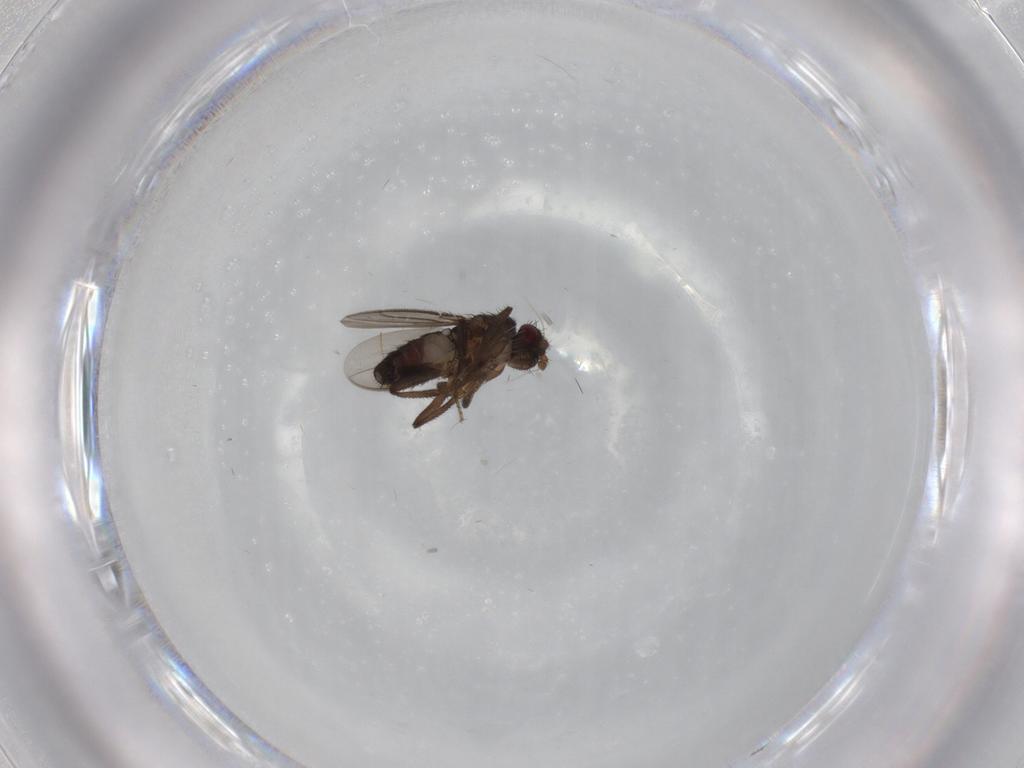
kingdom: Animalia
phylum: Arthropoda
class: Insecta
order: Diptera
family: Sphaeroceridae
